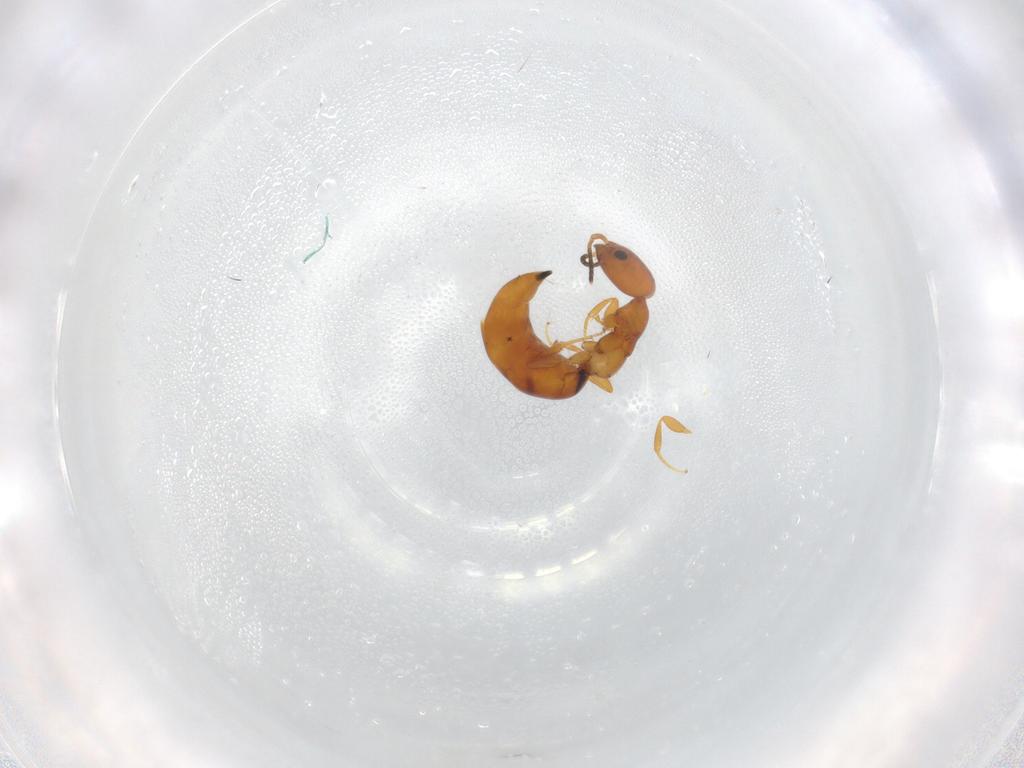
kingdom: Animalia
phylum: Arthropoda
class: Insecta
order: Hymenoptera
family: Bethylidae
